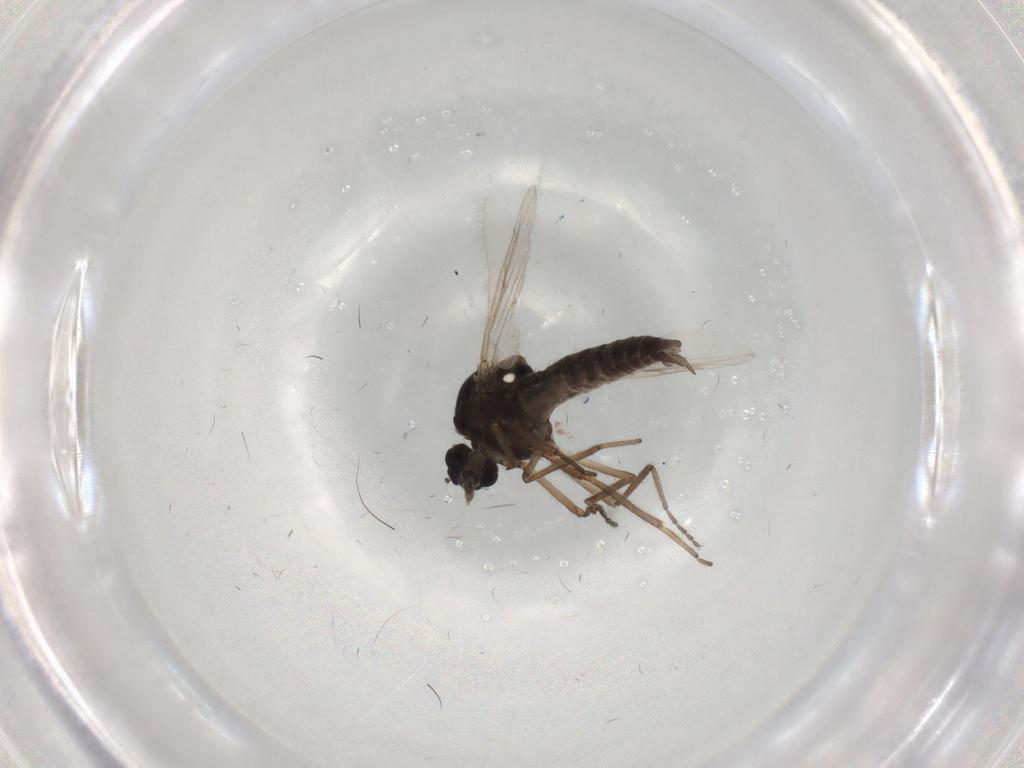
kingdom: Animalia
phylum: Arthropoda
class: Insecta
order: Diptera
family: Ceratopogonidae
